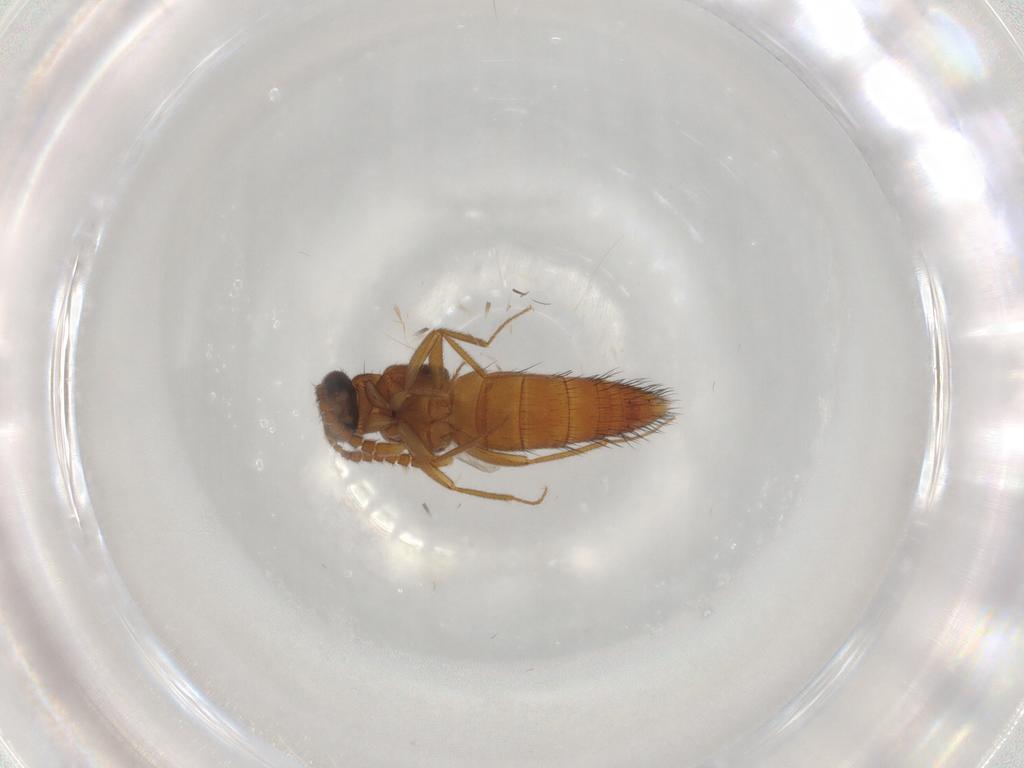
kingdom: Animalia
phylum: Arthropoda
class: Insecta
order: Coleoptera
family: Staphylinidae
